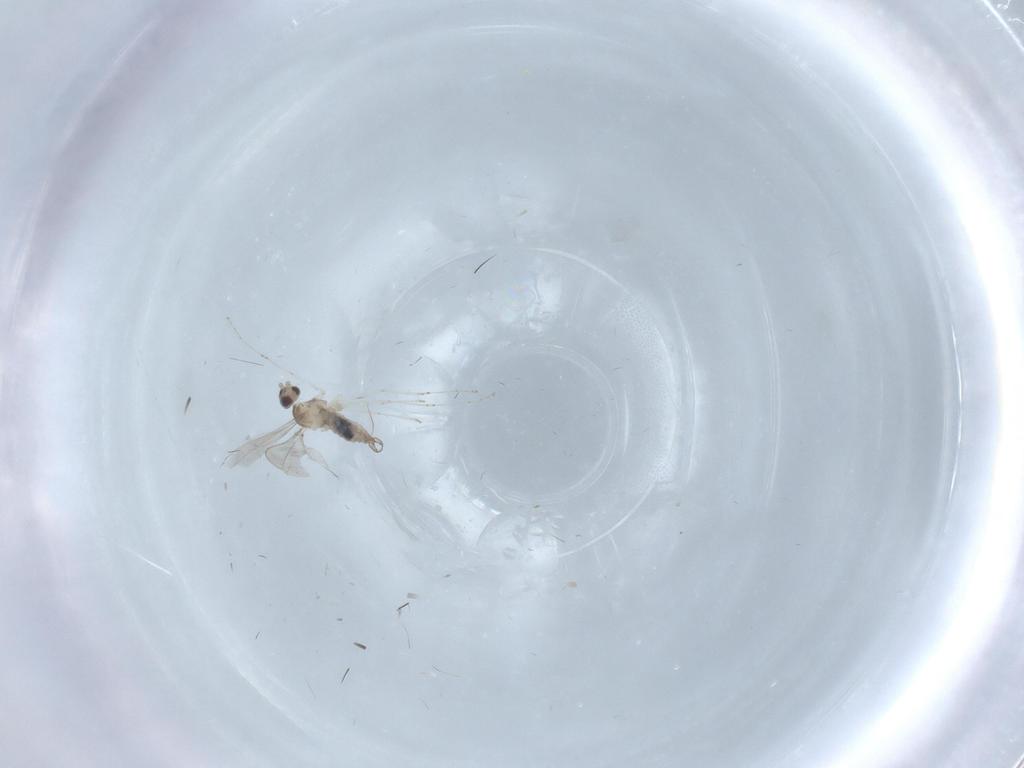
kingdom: Animalia
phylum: Arthropoda
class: Insecta
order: Diptera
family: Cecidomyiidae
